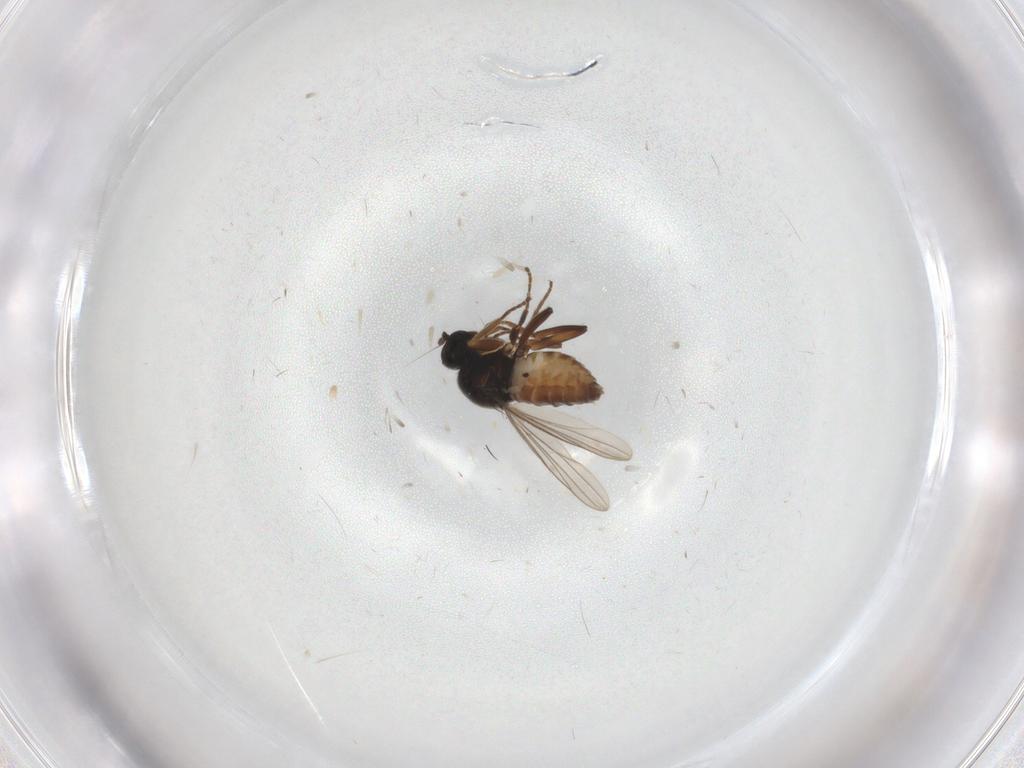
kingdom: Animalia
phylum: Arthropoda
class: Insecta
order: Diptera
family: Hybotidae
